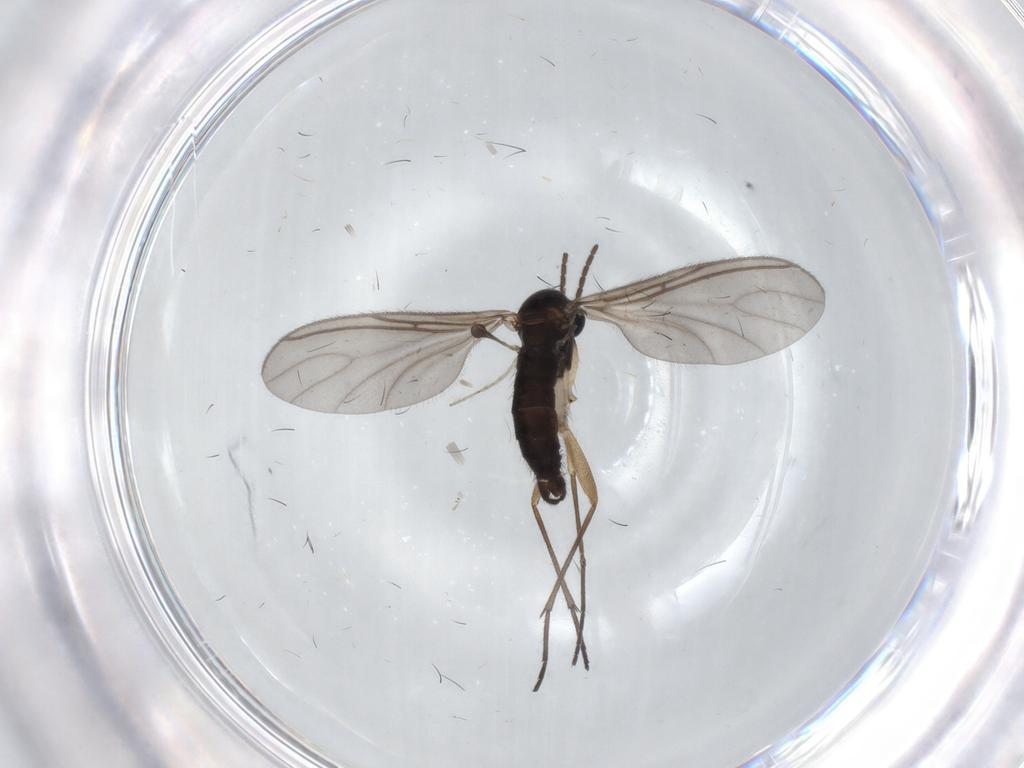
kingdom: Animalia
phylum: Arthropoda
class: Insecta
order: Diptera
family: Sciaridae
